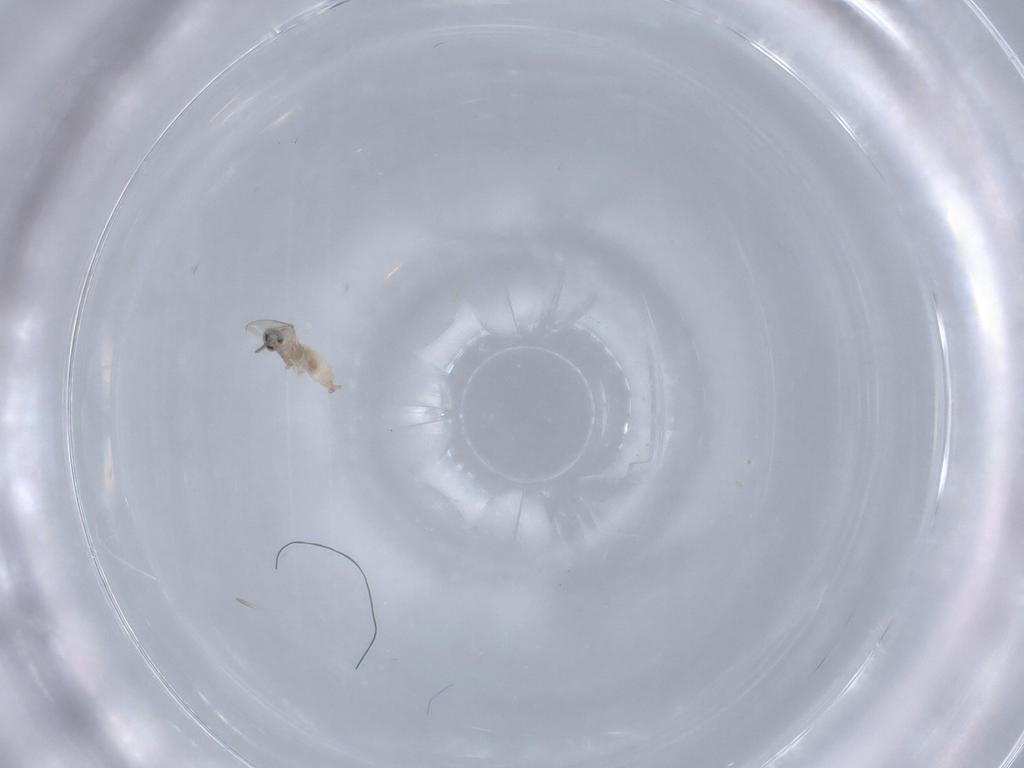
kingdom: Animalia
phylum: Arthropoda
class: Insecta
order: Diptera
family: Cecidomyiidae
